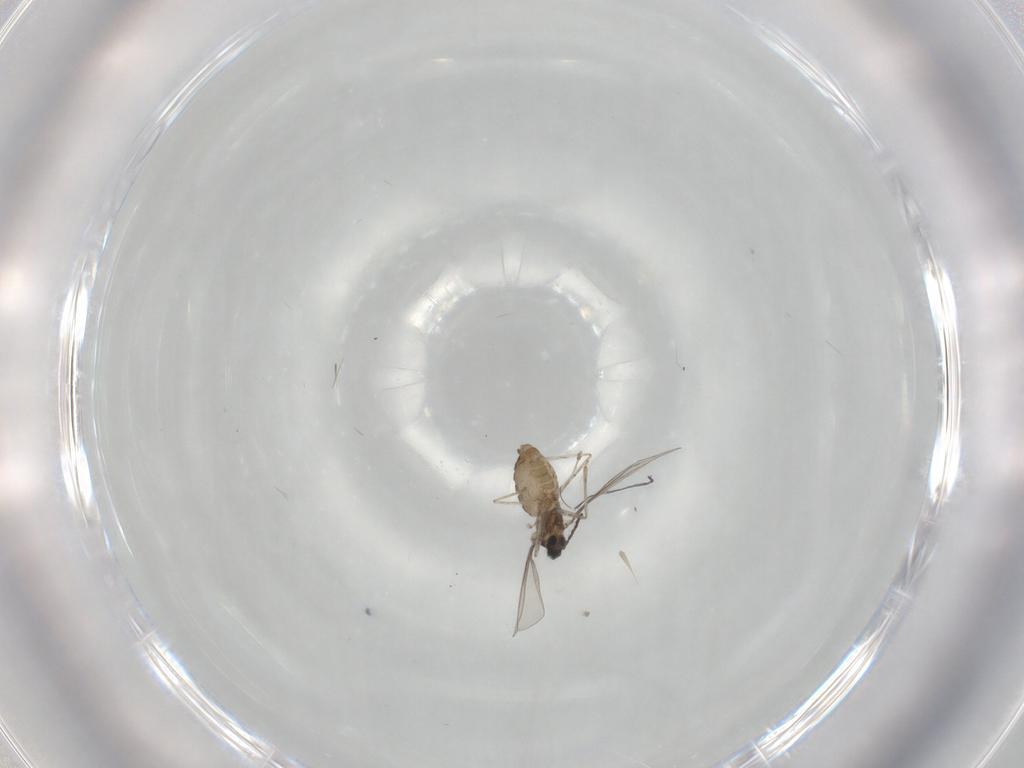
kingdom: Animalia
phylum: Arthropoda
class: Insecta
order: Diptera
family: Cecidomyiidae
